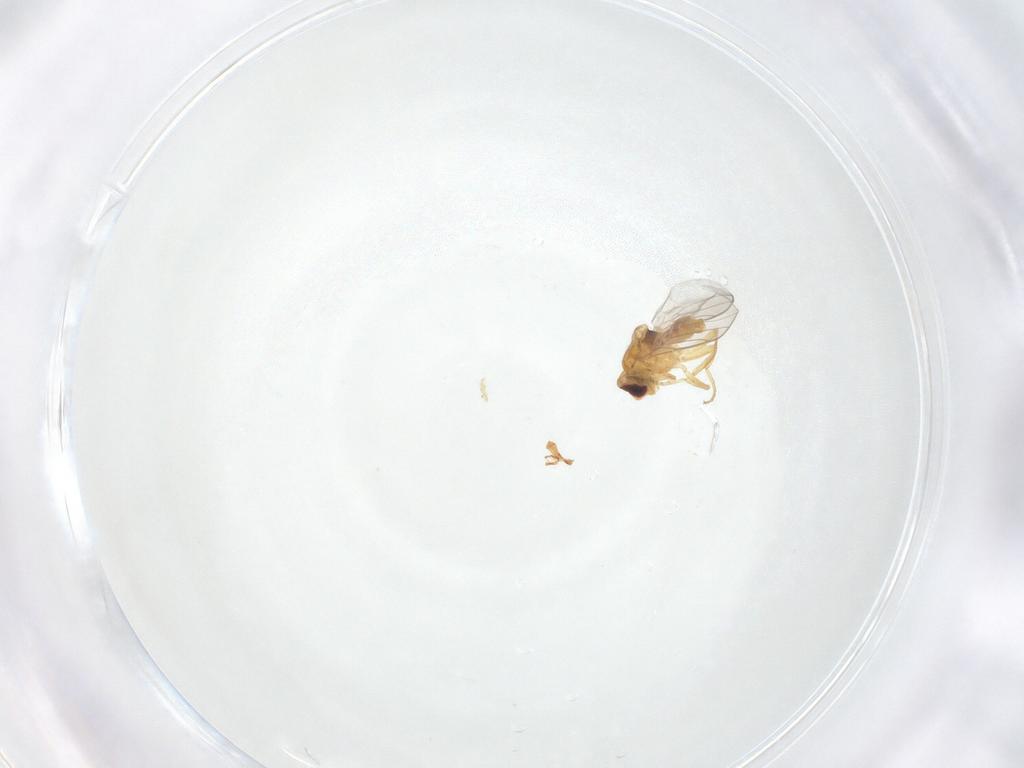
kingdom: Animalia
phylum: Arthropoda
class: Insecta
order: Diptera
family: Chloropidae
